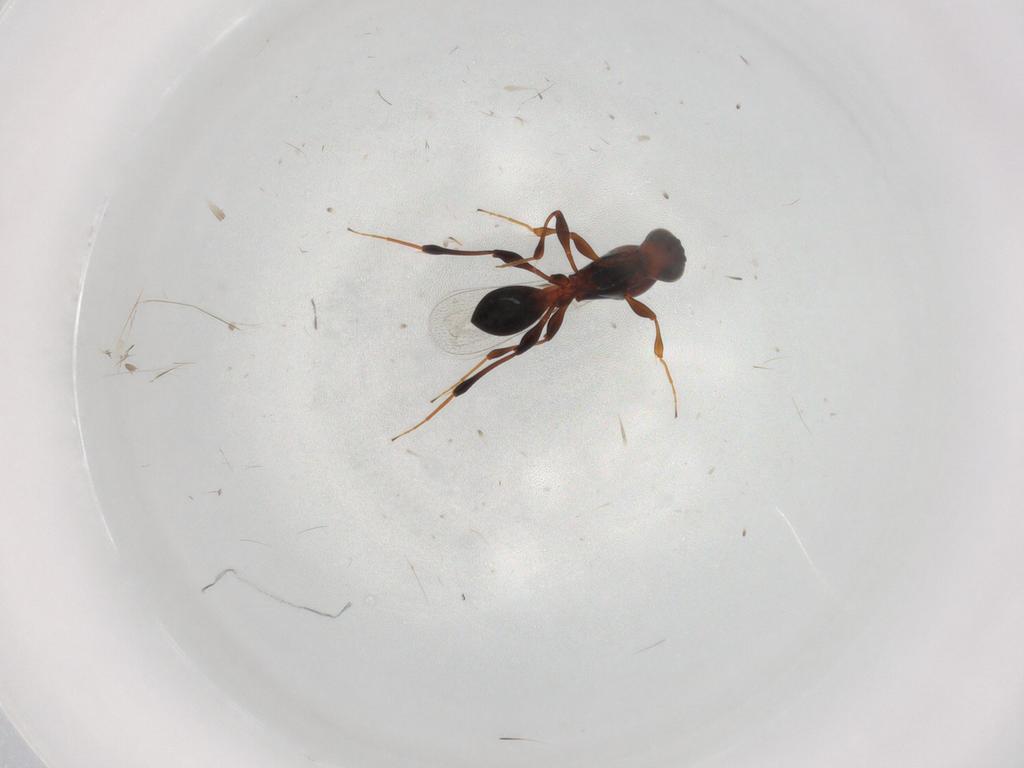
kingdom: Animalia
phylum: Arthropoda
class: Insecta
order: Hymenoptera
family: Platygastridae
